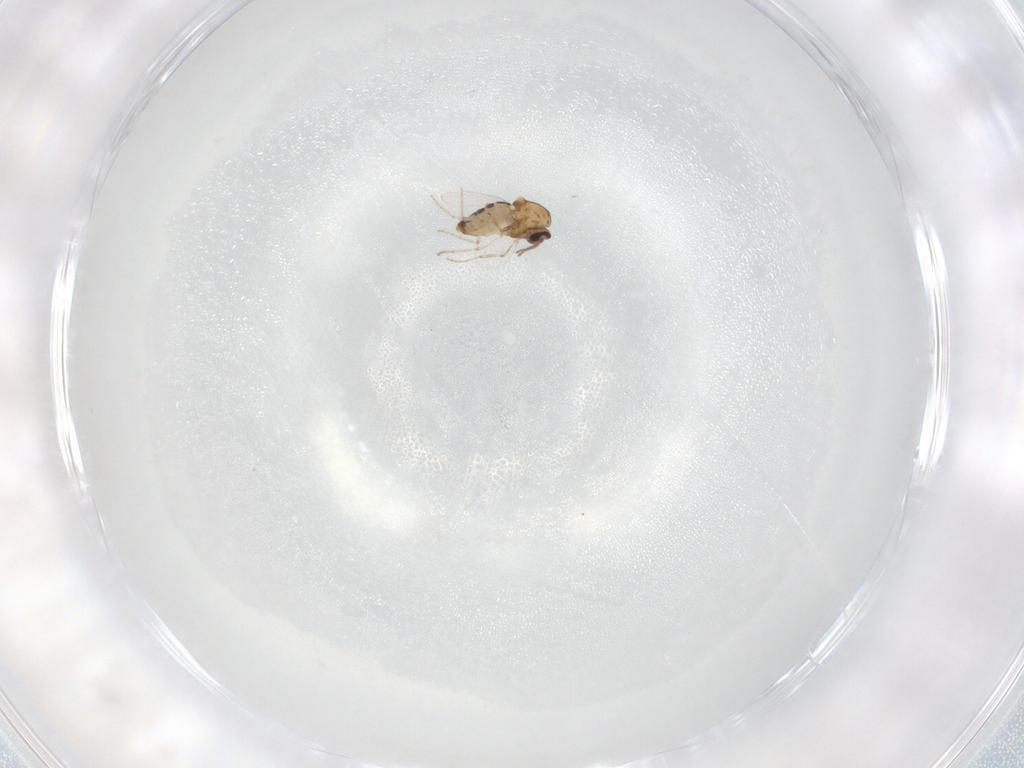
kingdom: Animalia
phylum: Arthropoda
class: Insecta
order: Diptera
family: Ceratopogonidae
